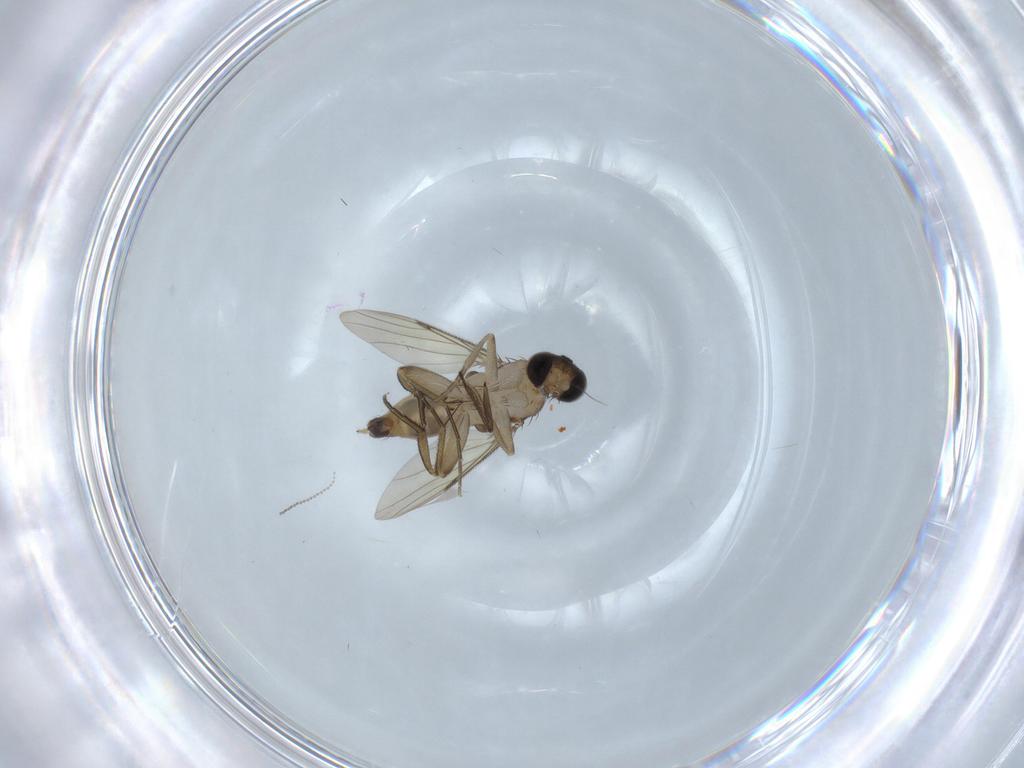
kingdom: Animalia
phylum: Arthropoda
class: Insecta
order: Diptera
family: Phoridae
